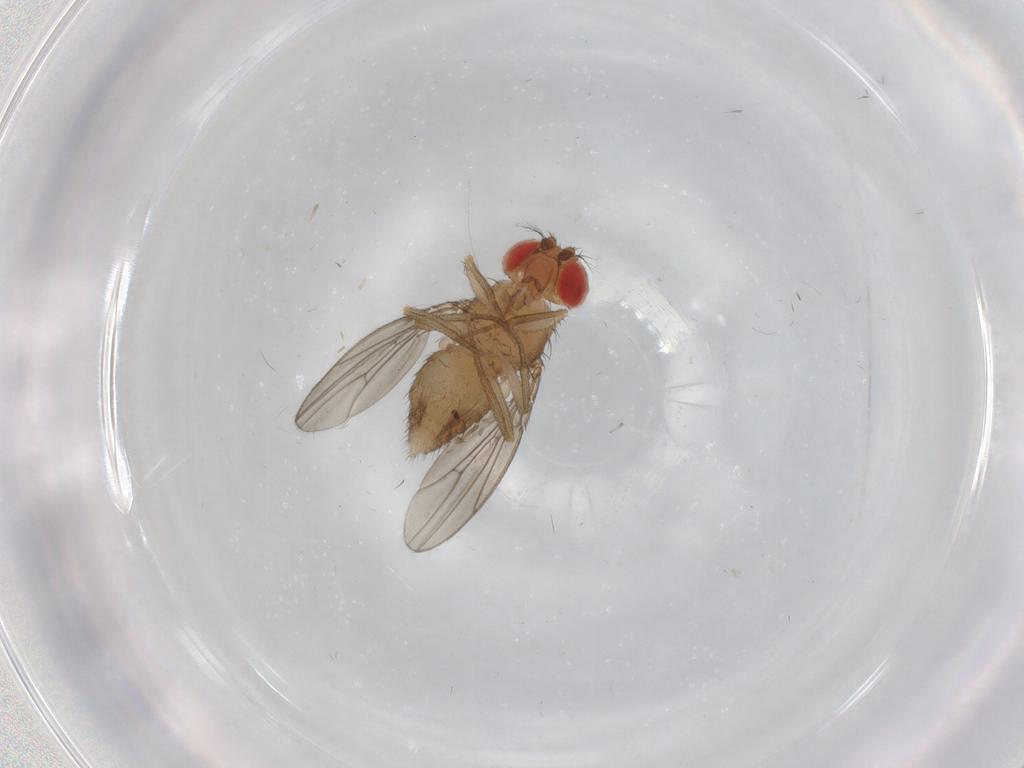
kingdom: Animalia
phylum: Arthropoda
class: Insecta
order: Diptera
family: Drosophilidae
